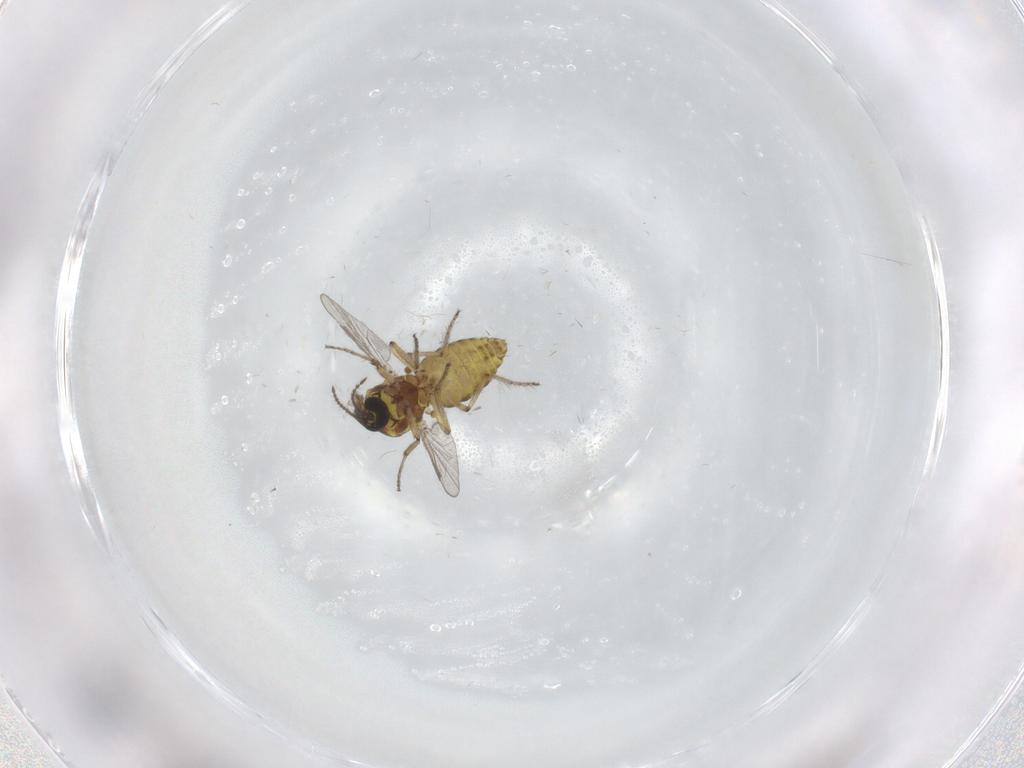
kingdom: Animalia
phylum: Arthropoda
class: Insecta
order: Diptera
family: Ceratopogonidae
